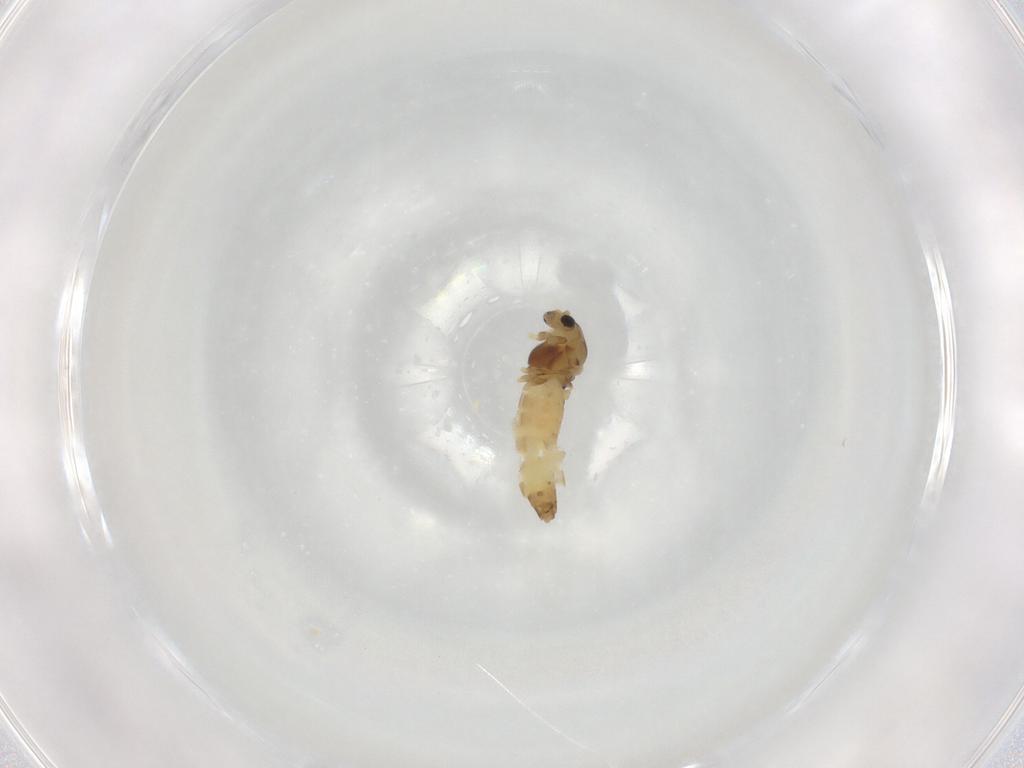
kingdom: Animalia
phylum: Arthropoda
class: Insecta
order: Diptera
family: Chironomidae
